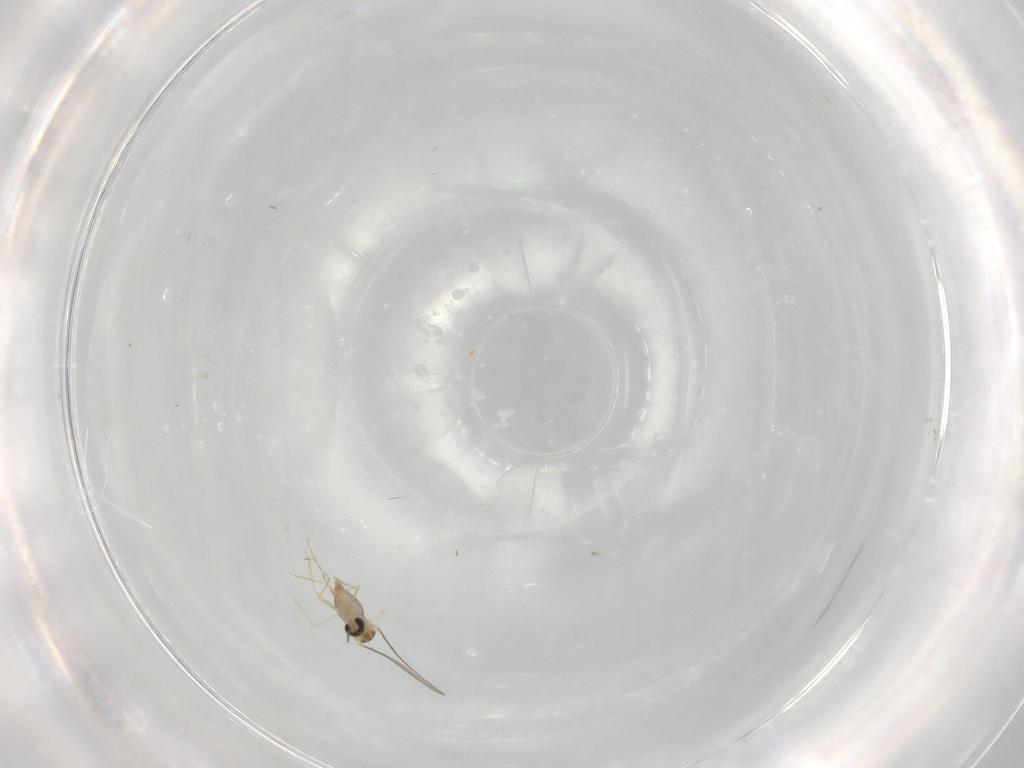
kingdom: Animalia
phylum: Arthropoda
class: Insecta
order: Diptera
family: Chironomidae
